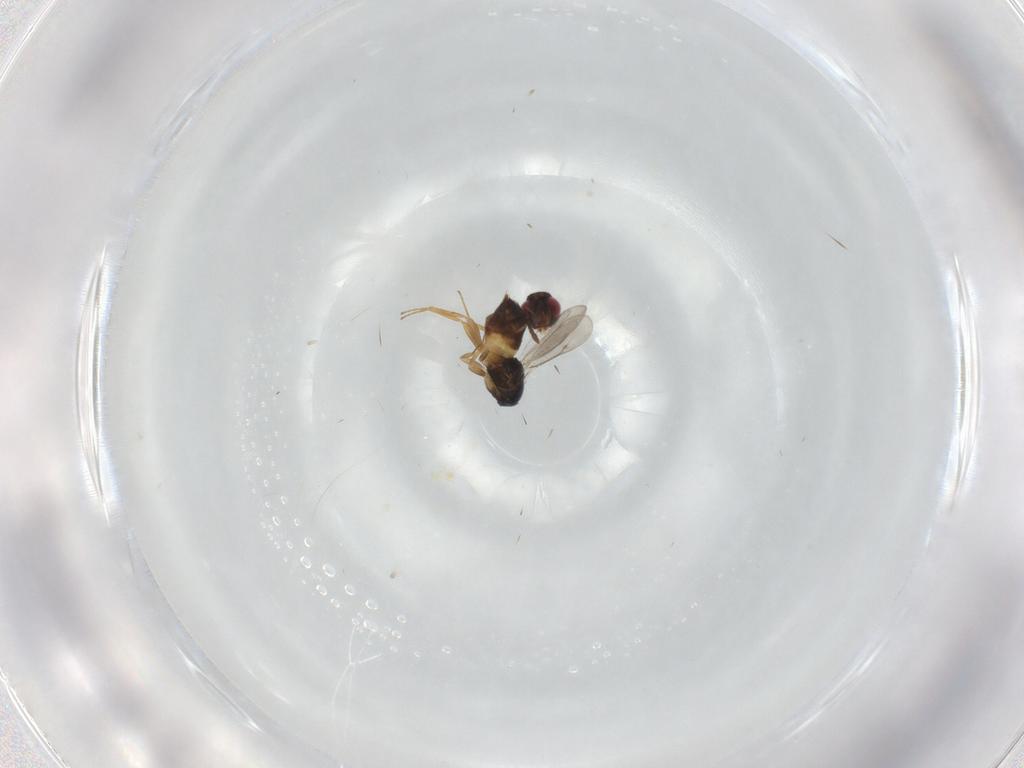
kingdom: Animalia
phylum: Arthropoda
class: Insecta
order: Hymenoptera
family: Eulophidae
